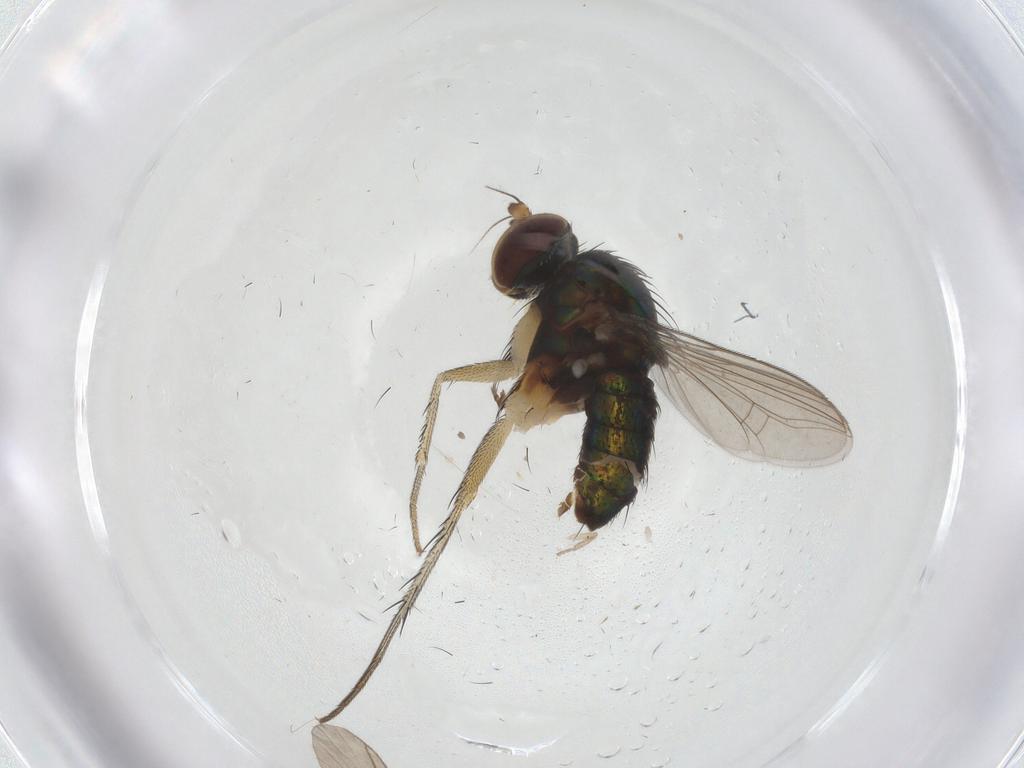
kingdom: Animalia
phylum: Arthropoda
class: Insecta
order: Diptera
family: Dolichopodidae
